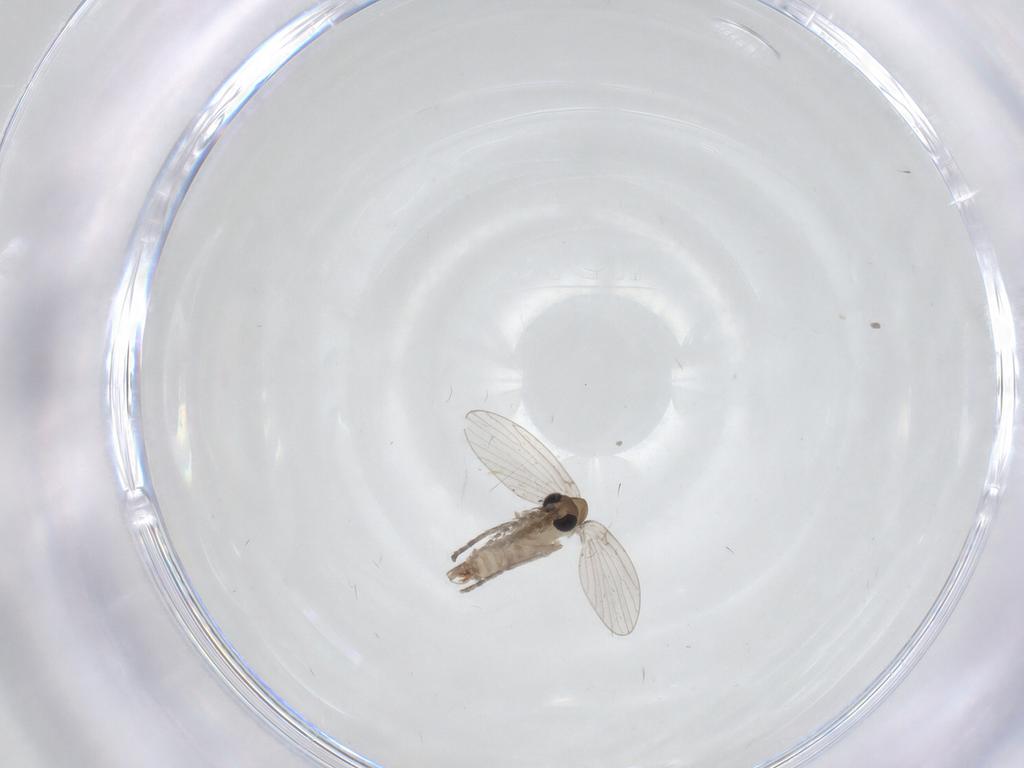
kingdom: Animalia
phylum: Arthropoda
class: Insecta
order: Diptera
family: Psychodidae
